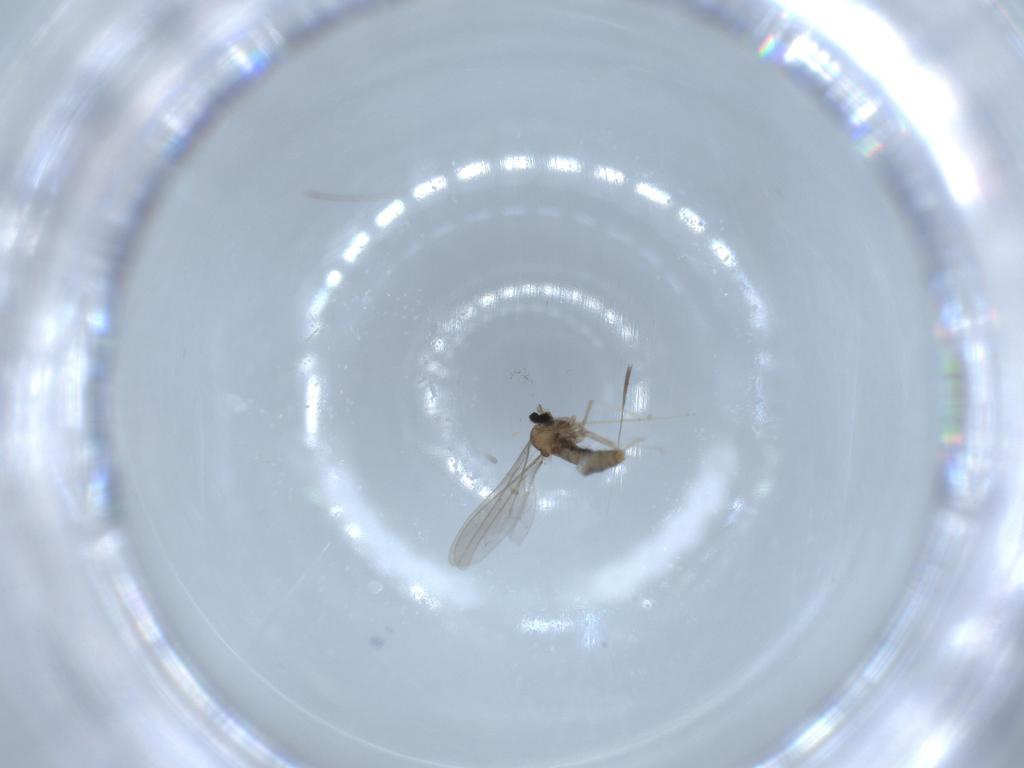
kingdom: Animalia
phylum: Arthropoda
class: Insecta
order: Diptera
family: Cecidomyiidae
